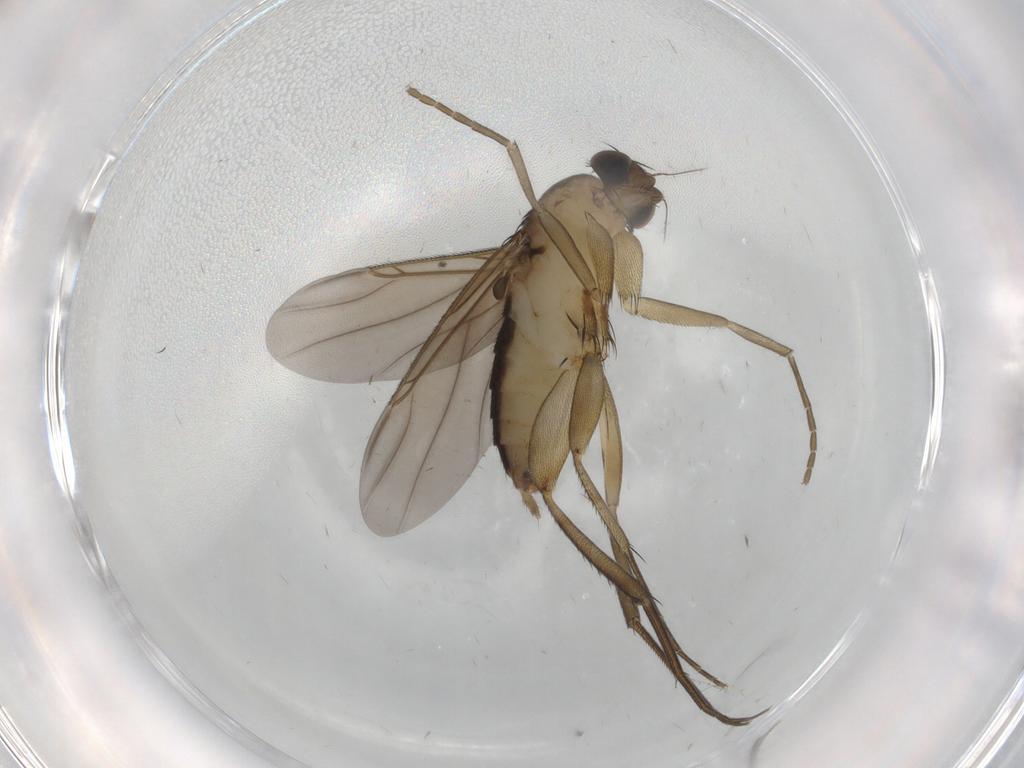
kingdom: Animalia
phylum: Arthropoda
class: Insecta
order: Diptera
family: Phoridae
